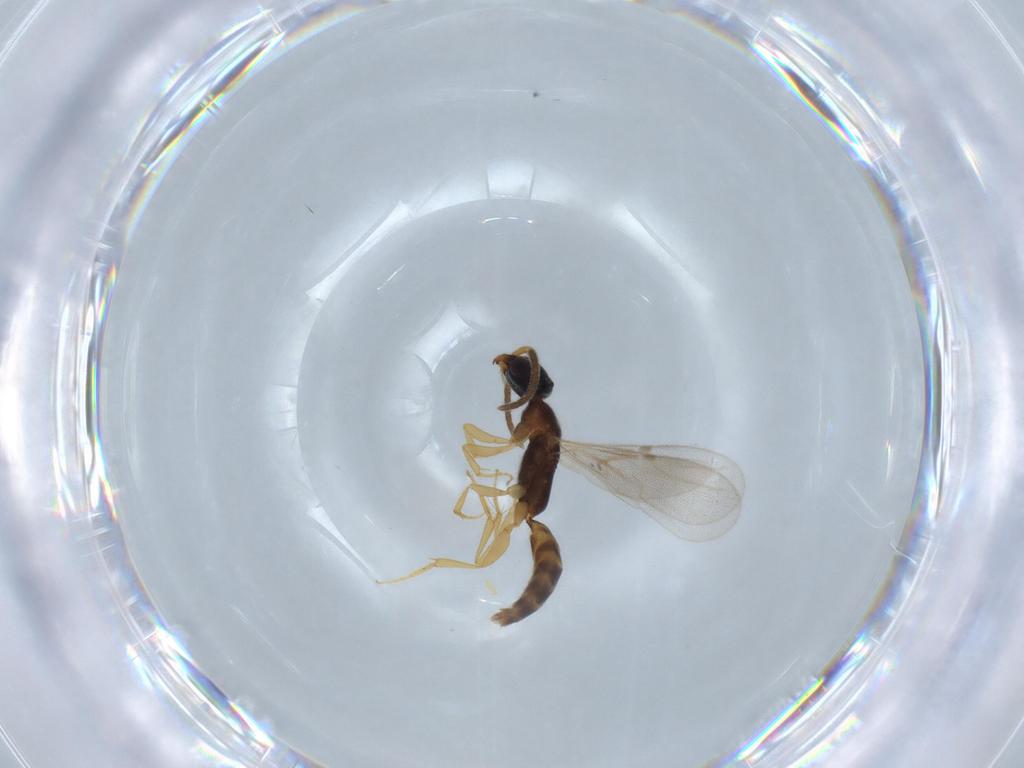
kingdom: Animalia
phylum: Arthropoda
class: Insecta
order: Hymenoptera
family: Bethylidae
